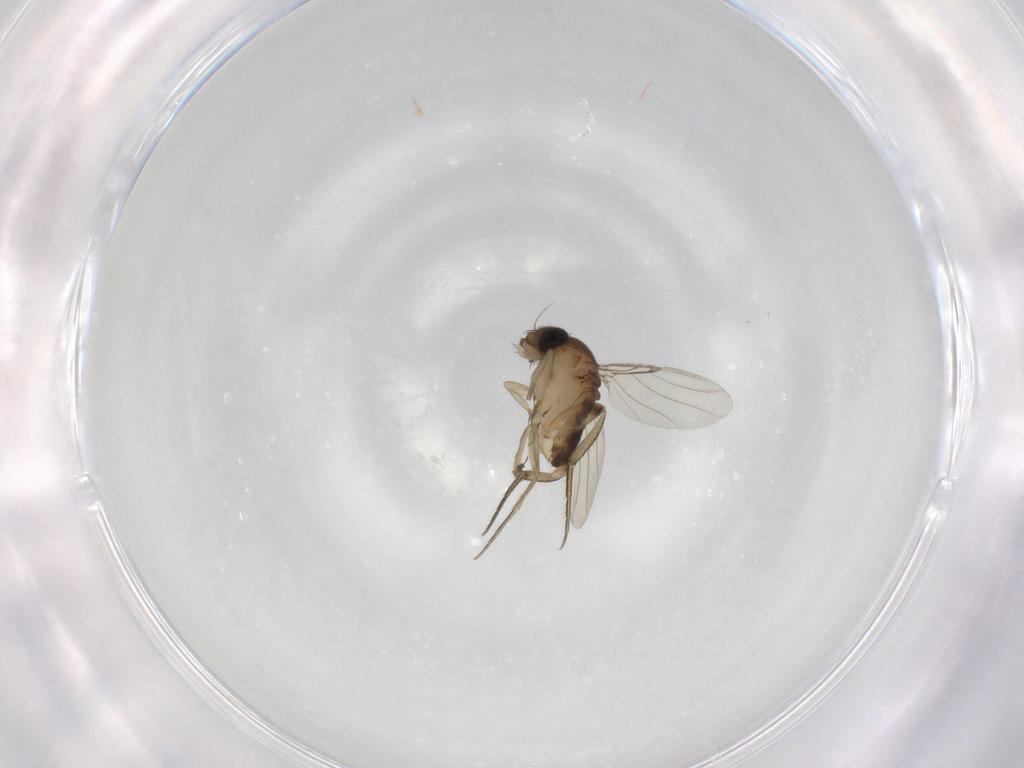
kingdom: Animalia
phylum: Arthropoda
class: Insecta
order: Diptera
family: Phoridae
